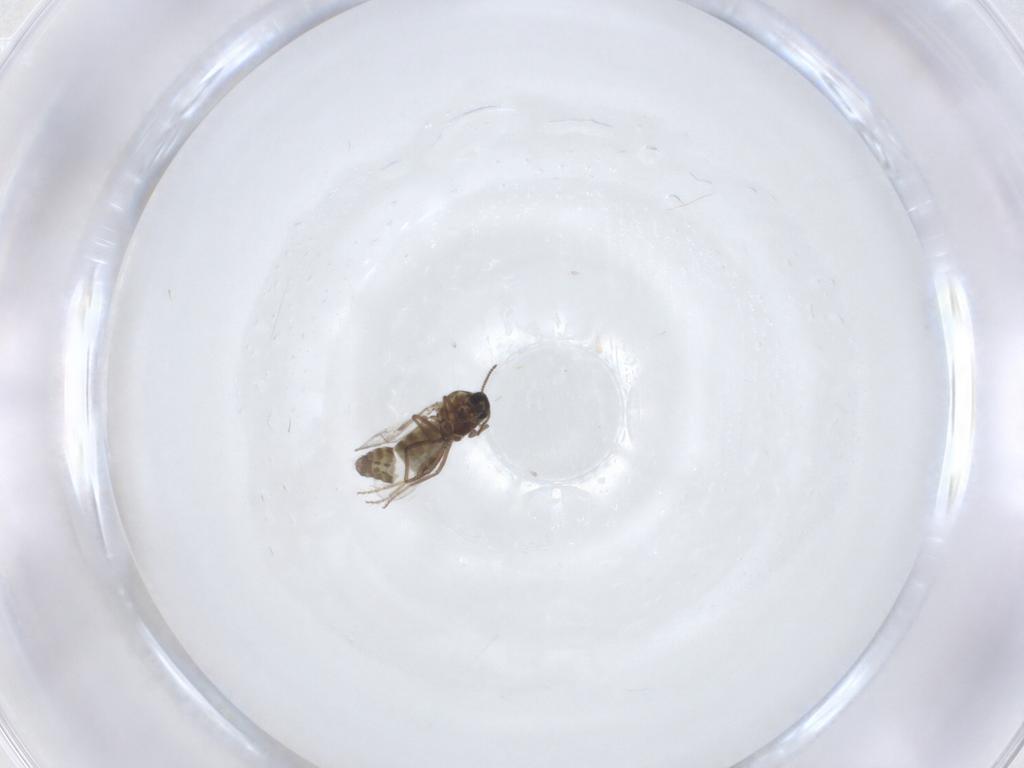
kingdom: Animalia
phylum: Arthropoda
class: Insecta
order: Diptera
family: Ceratopogonidae
